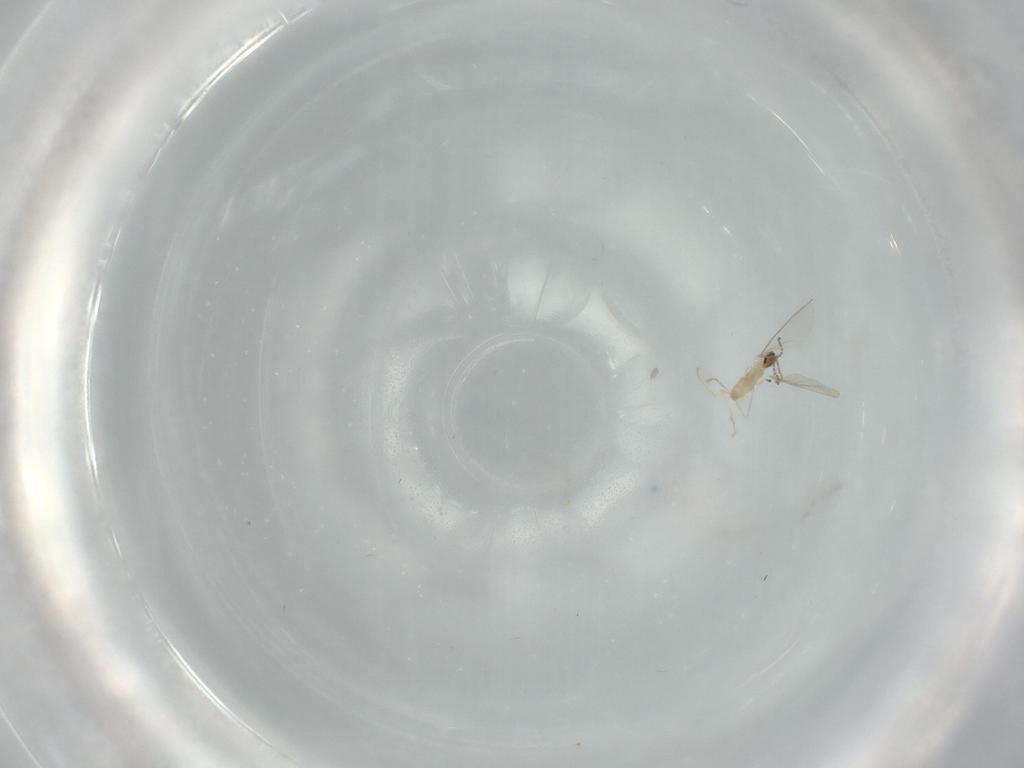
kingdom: Animalia
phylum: Arthropoda
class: Insecta
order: Diptera
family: Cecidomyiidae
